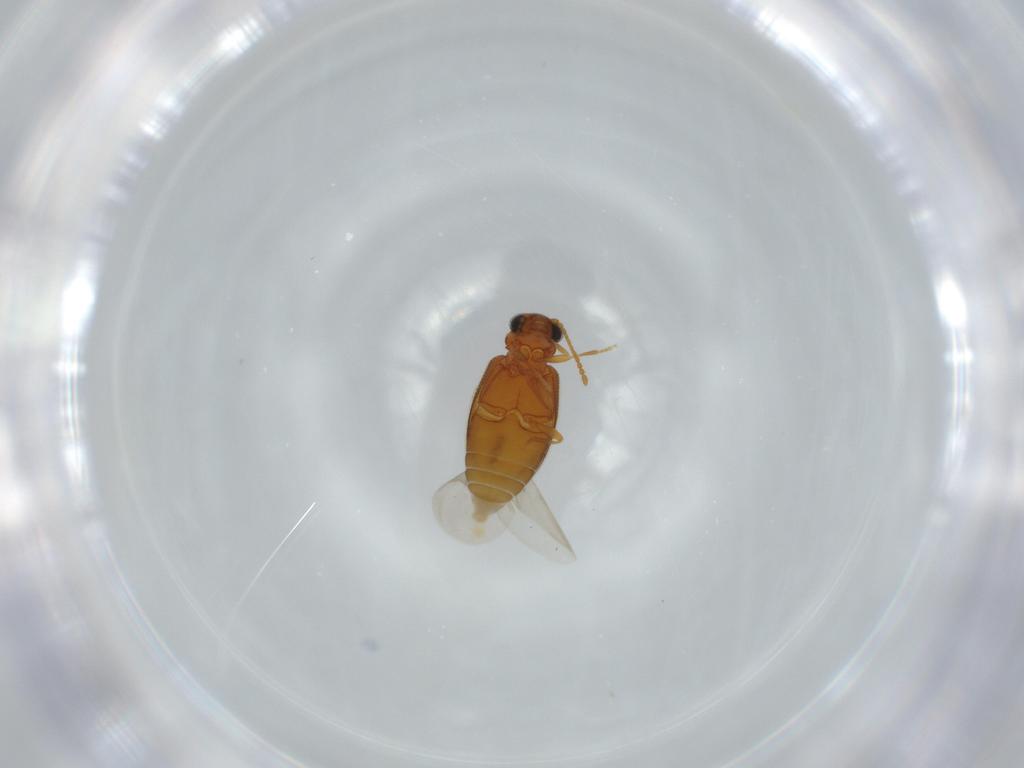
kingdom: Animalia
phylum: Arthropoda
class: Insecta
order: Coleoptera
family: Aderidae
